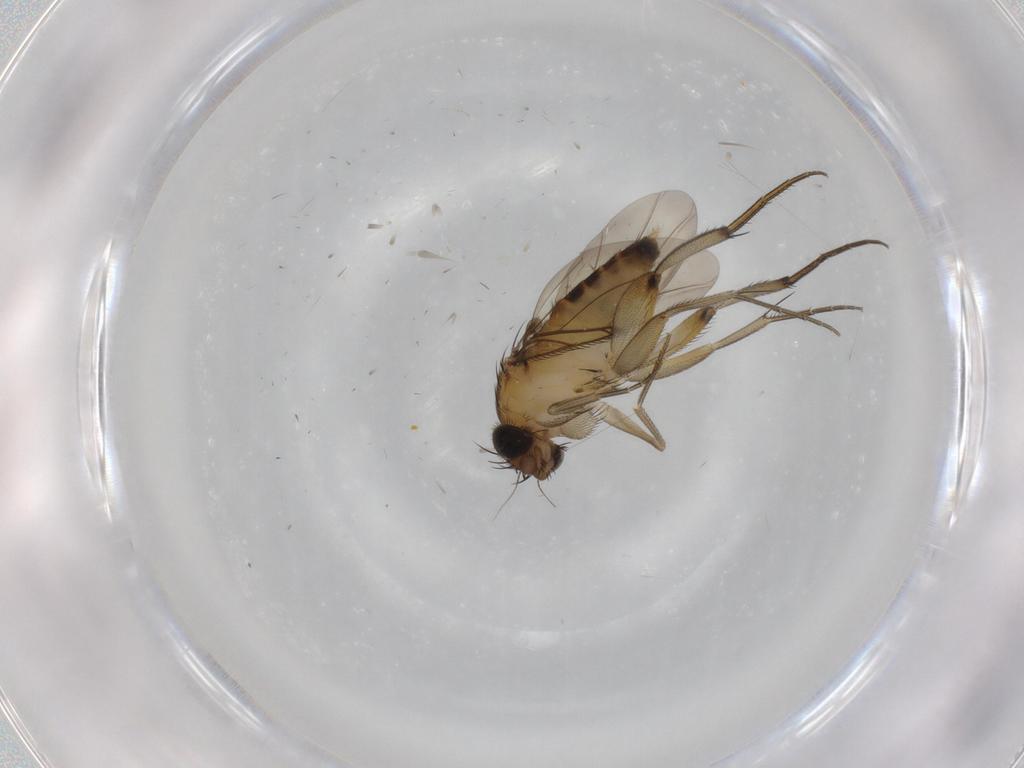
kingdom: Animalia
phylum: Arthropoda
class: Insecta
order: Diptera
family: Phoridae
